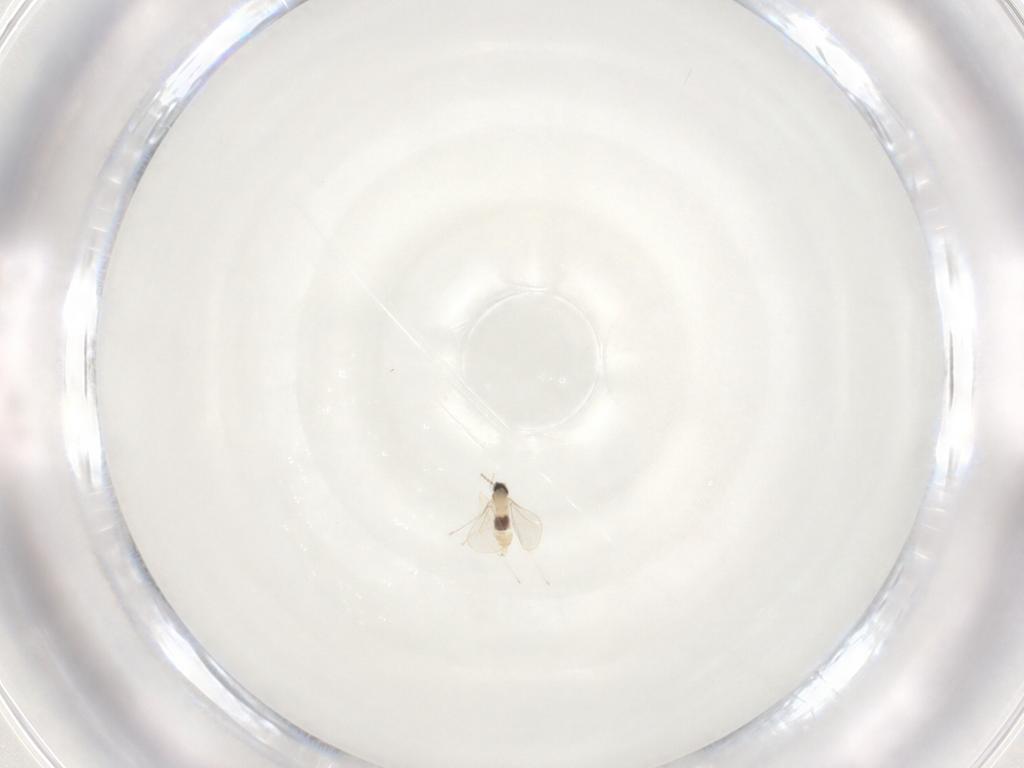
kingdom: Animalia
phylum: Arthropoda
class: Insecta
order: Diptera
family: Cecidomyiidae
